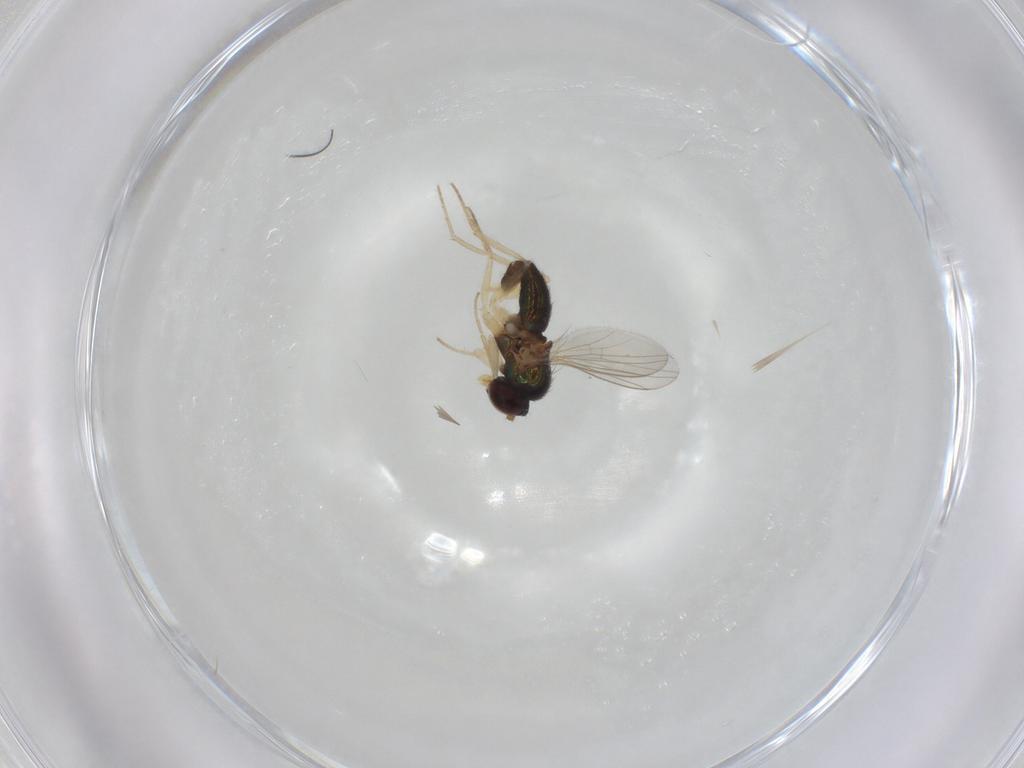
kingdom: Animalia
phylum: Arthropoda
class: Insecta
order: Diptera
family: Dolichopodidae
